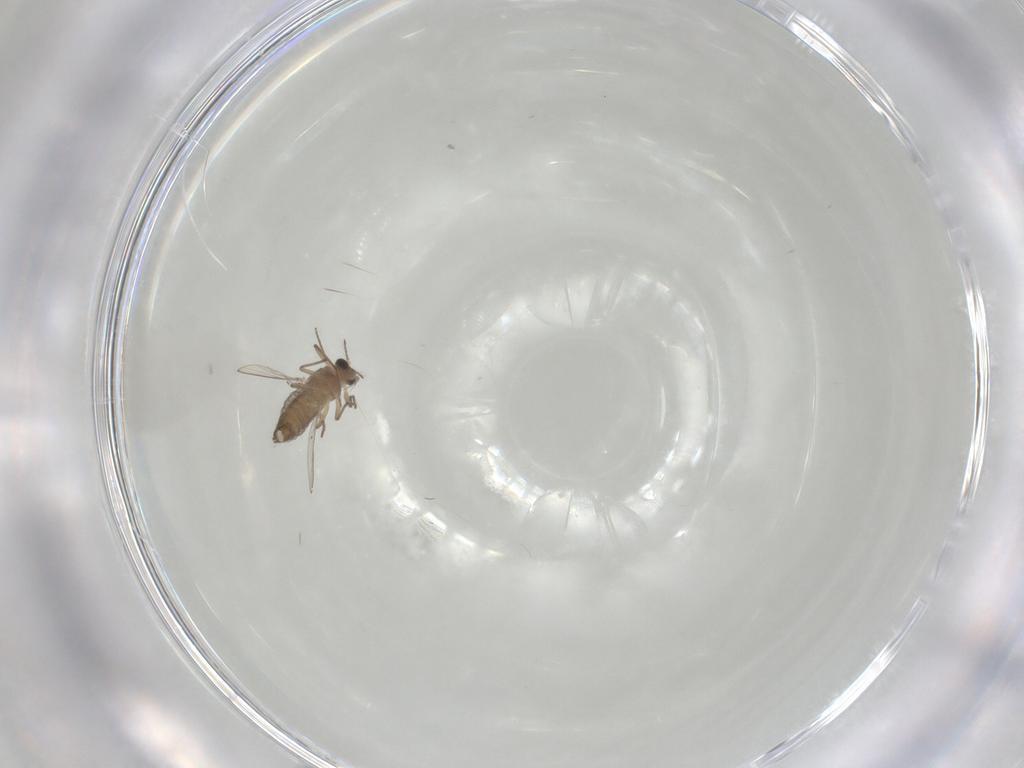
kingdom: Animalia
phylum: Arthropoda
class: Insecta
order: Diptera
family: Chironomidae
